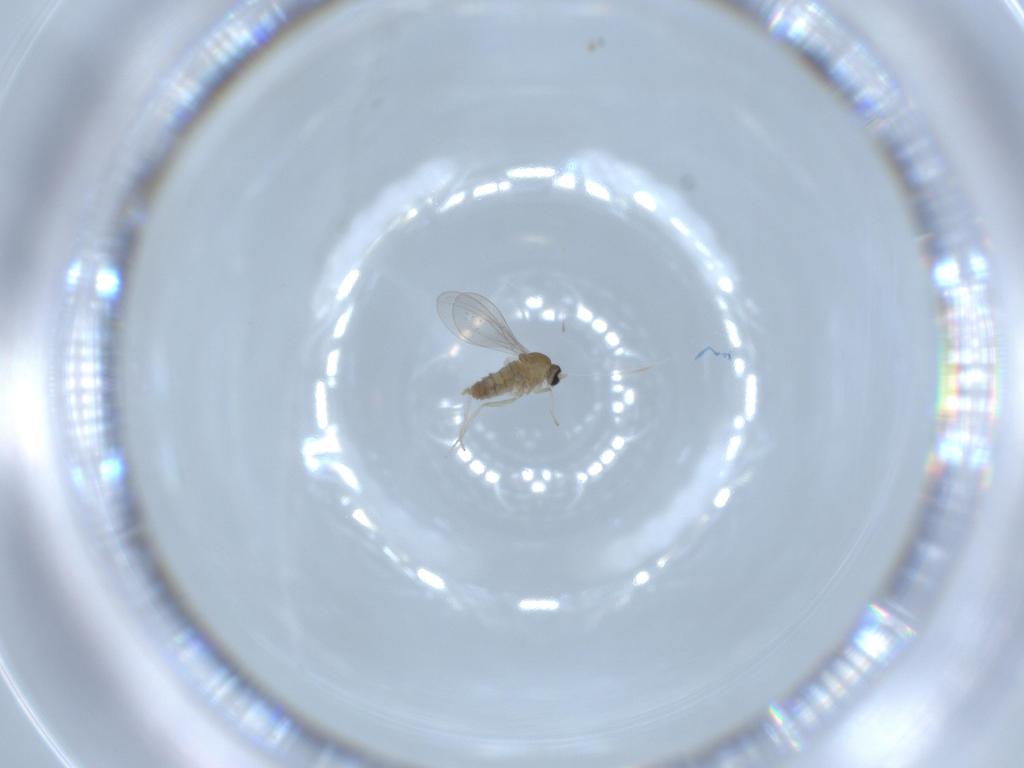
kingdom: Animalia
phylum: Arthropoda
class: Insecta
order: Diptera
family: Cecidomyiidae
